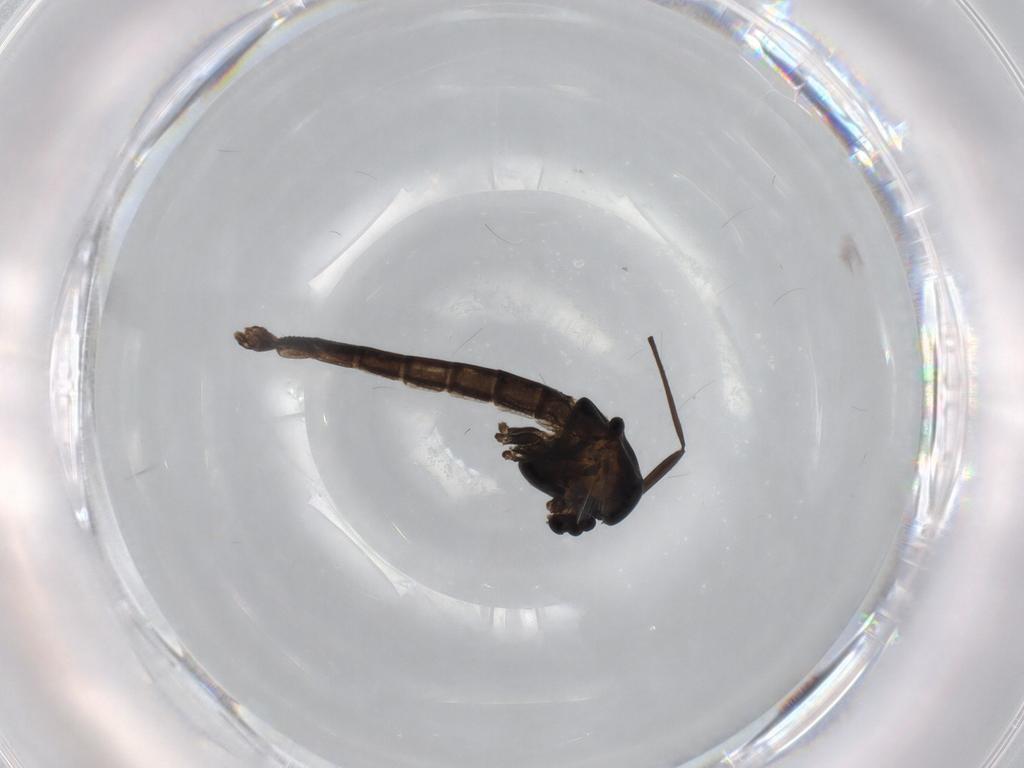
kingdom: Animalia
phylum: Arthropoda
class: Insecta
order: Diptera
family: Chironomidae
